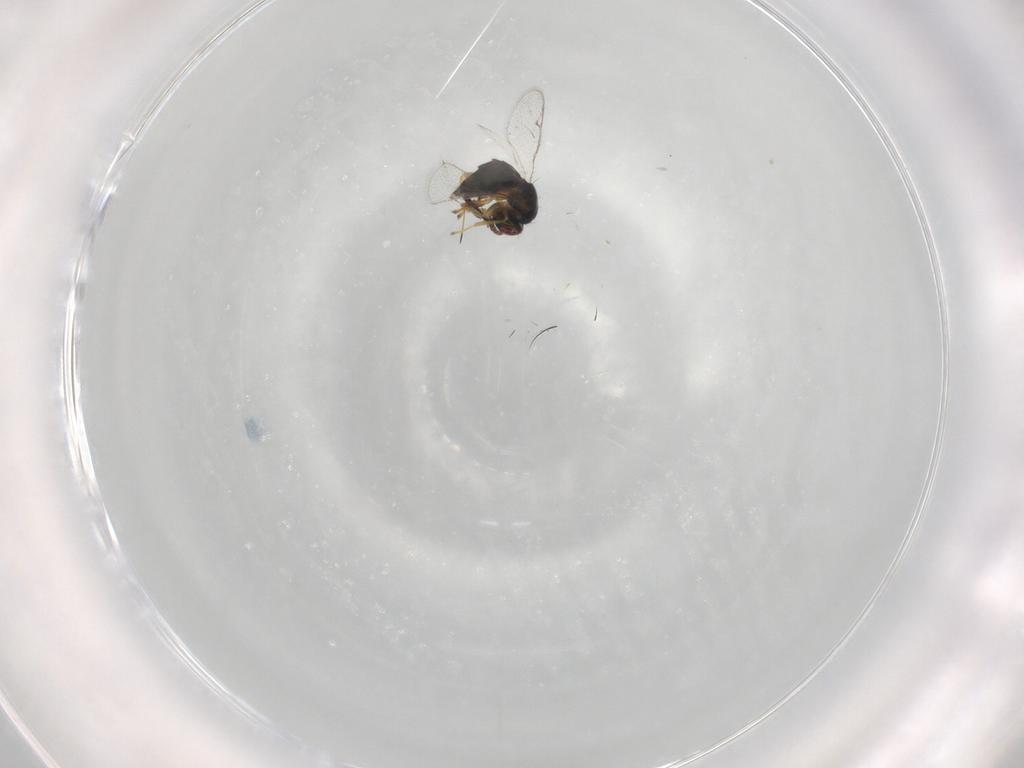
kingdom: Animalia
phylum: Arthropoda
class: Insecta
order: Hymenoptera
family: Torymidae
